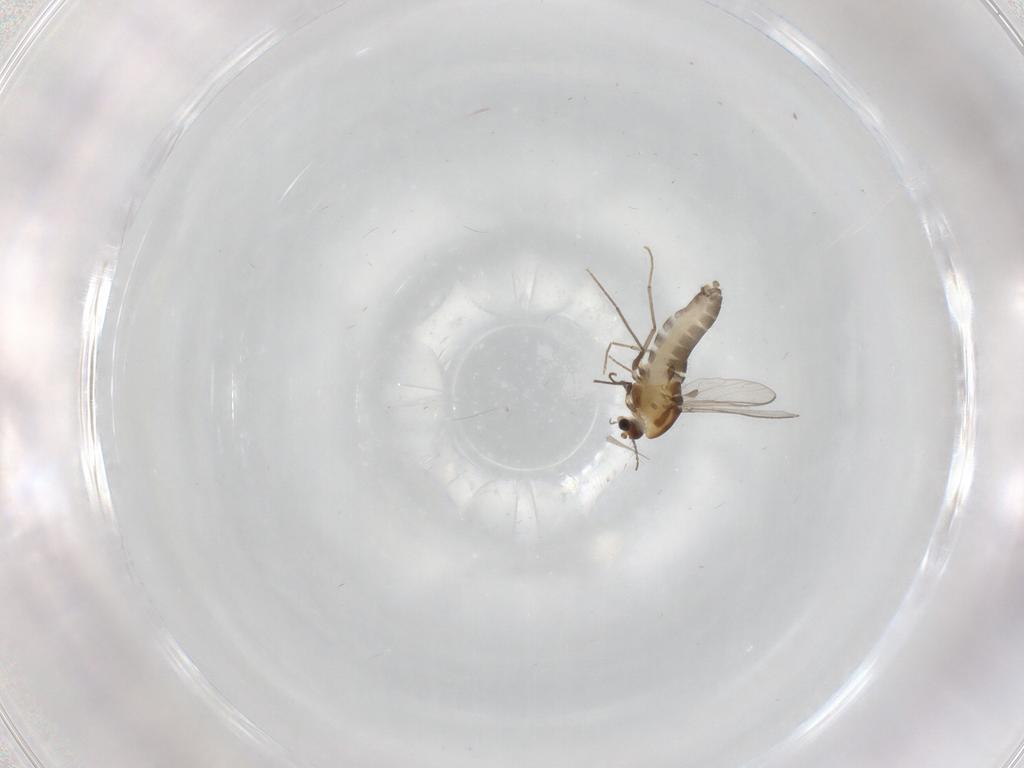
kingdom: Animalia
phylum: Arthropoda
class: Insecta
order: Diptera
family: Chironomidae
